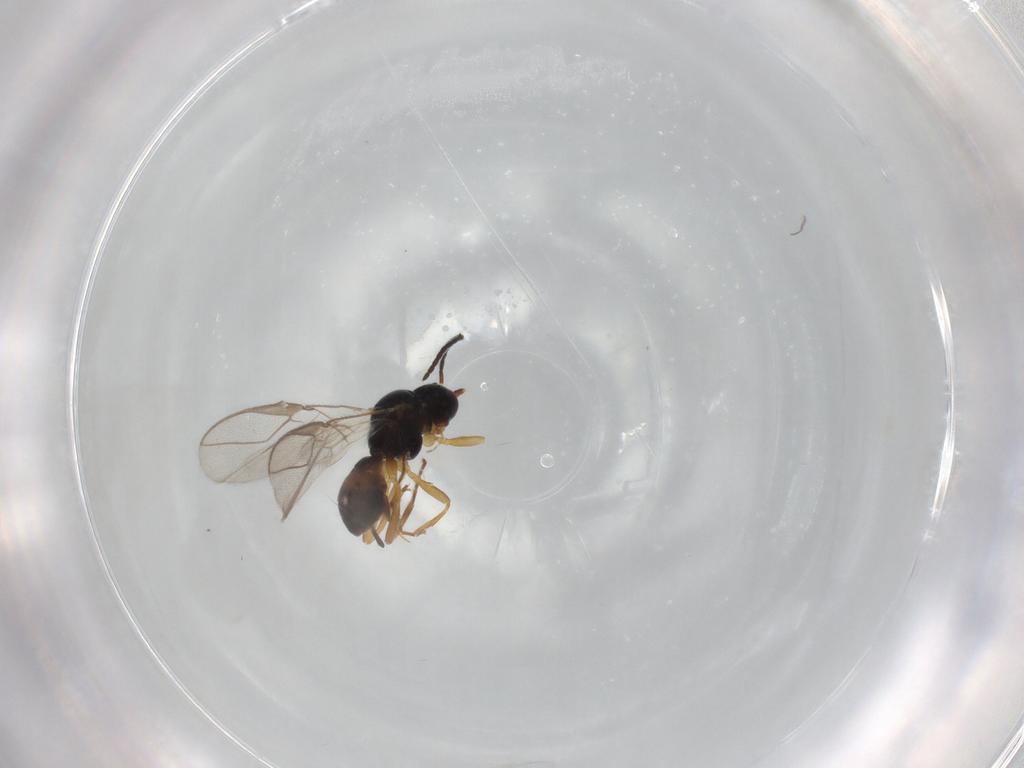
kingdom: Animalia
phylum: Arthropoda
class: Insecta
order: Hymenoptera
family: Braconidae
